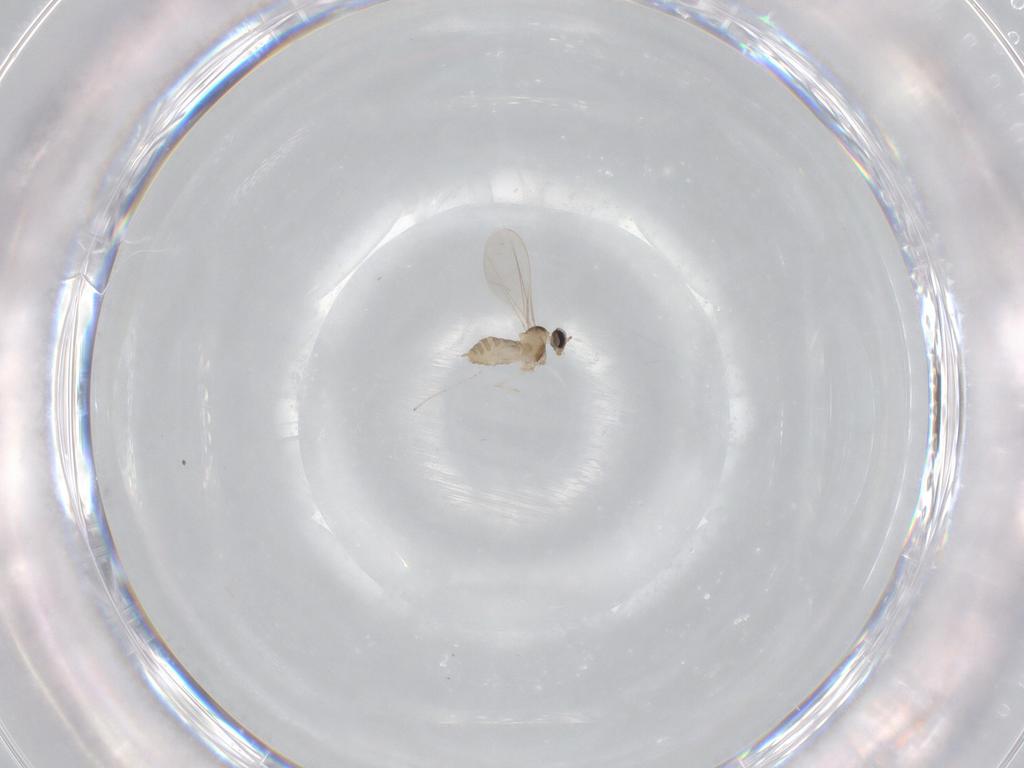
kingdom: Animalia
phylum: Arthropoda
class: Insecta
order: Diptera
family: Cecidomyiidae
